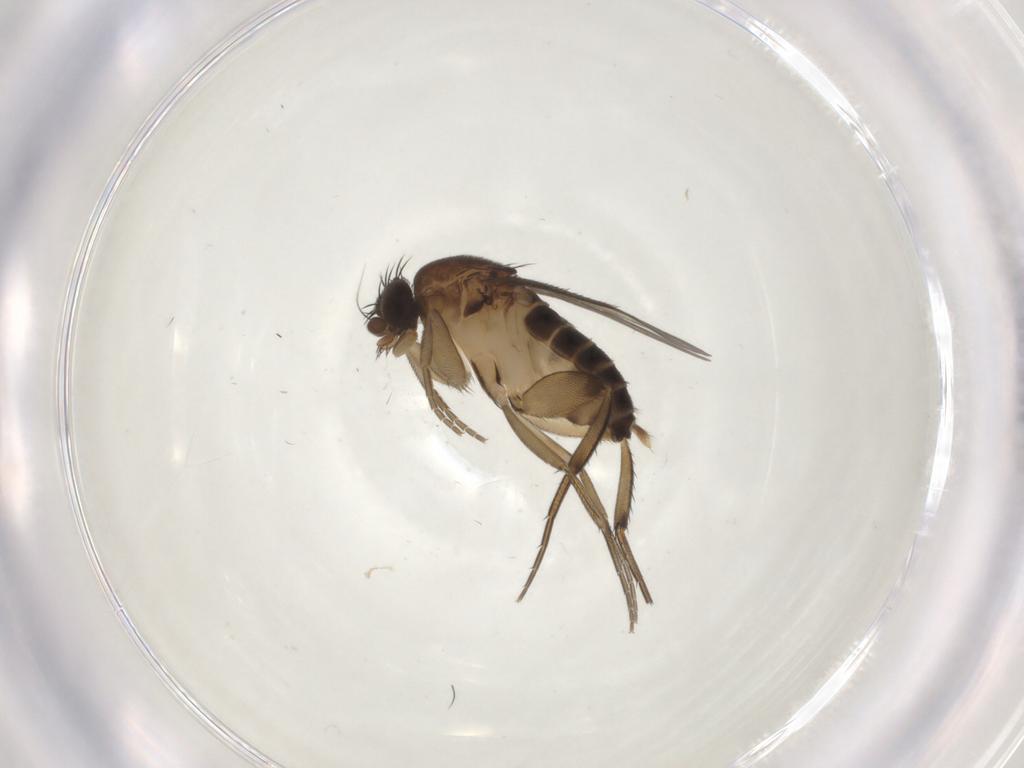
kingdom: Animalia
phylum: Arthropoda
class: Insecta
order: Diptera
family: Phoridae
